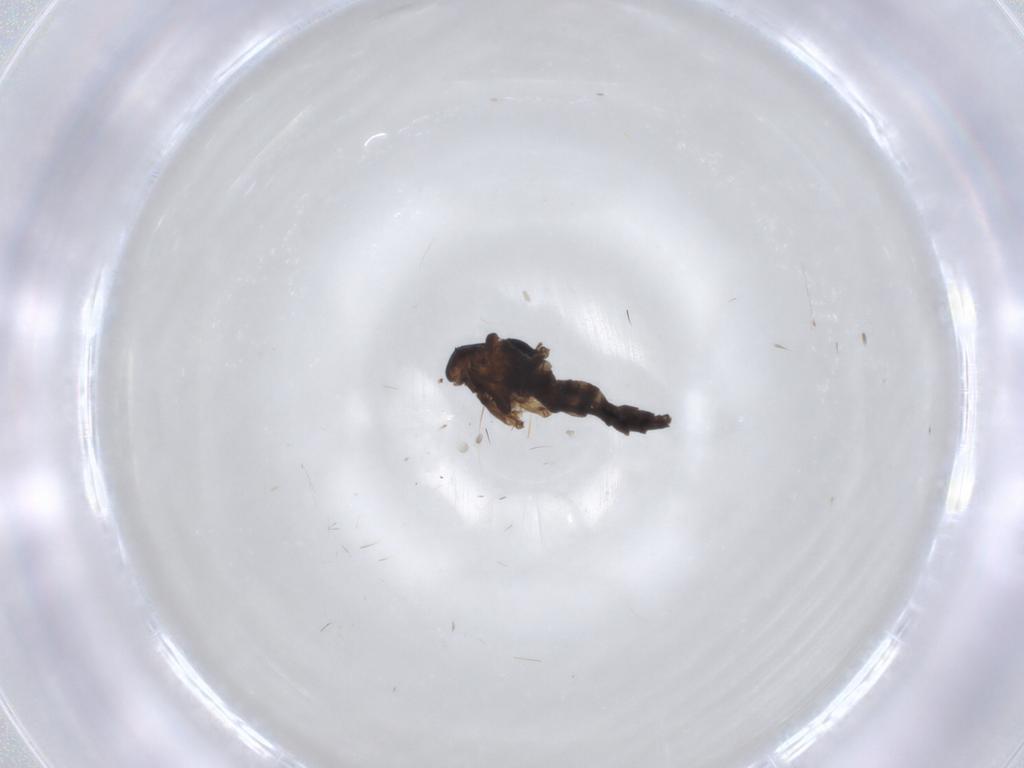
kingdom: Animalia
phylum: Arthropoda
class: Insecta
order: Diptera
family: Sciaridae
